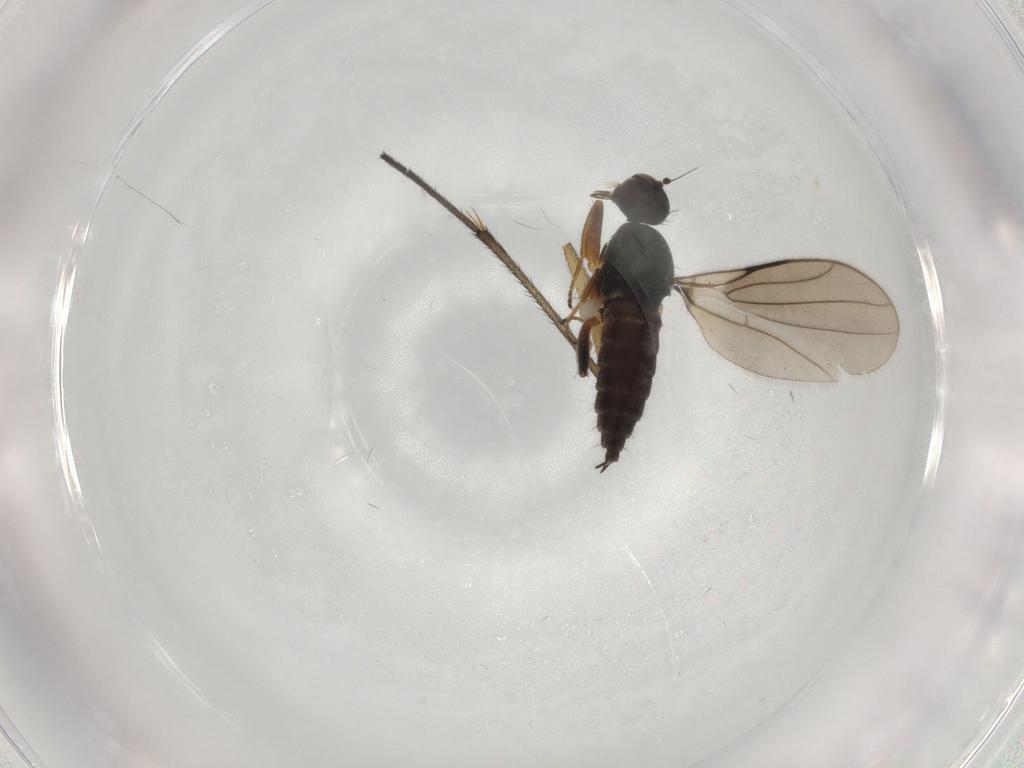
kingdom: Animalia
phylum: Arthropoda
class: Insecta
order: Diptera
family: Hybotidae
